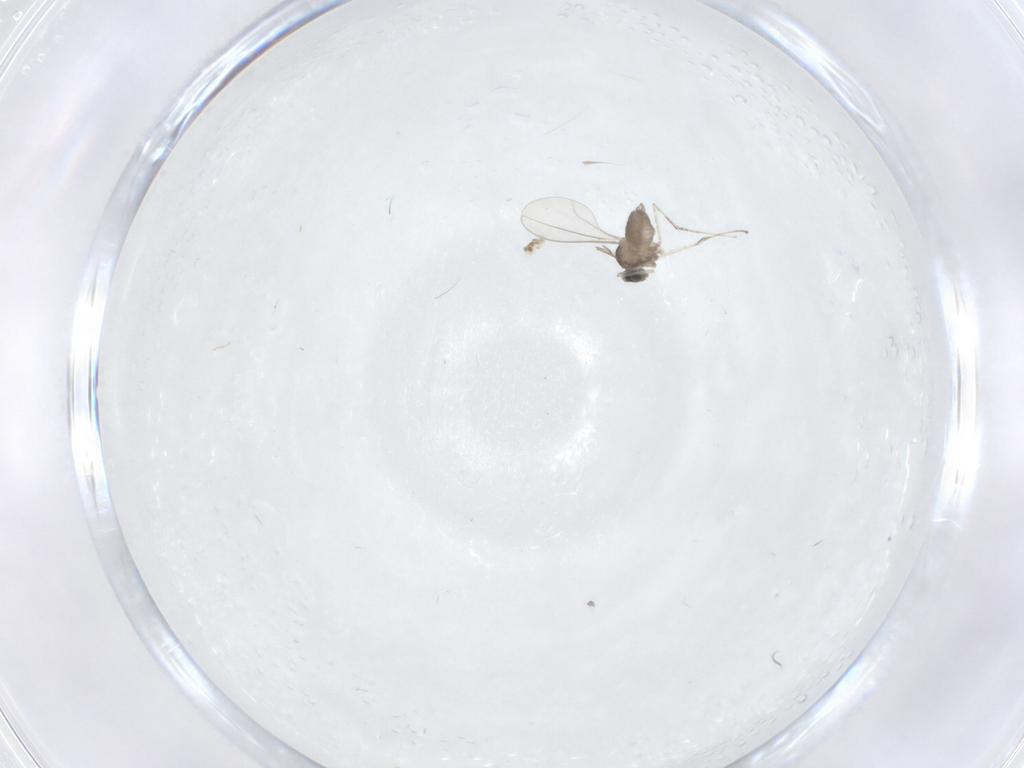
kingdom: Animalia
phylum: Arthropoda
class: Insecta
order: Diptera
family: Cecidomyiidae
